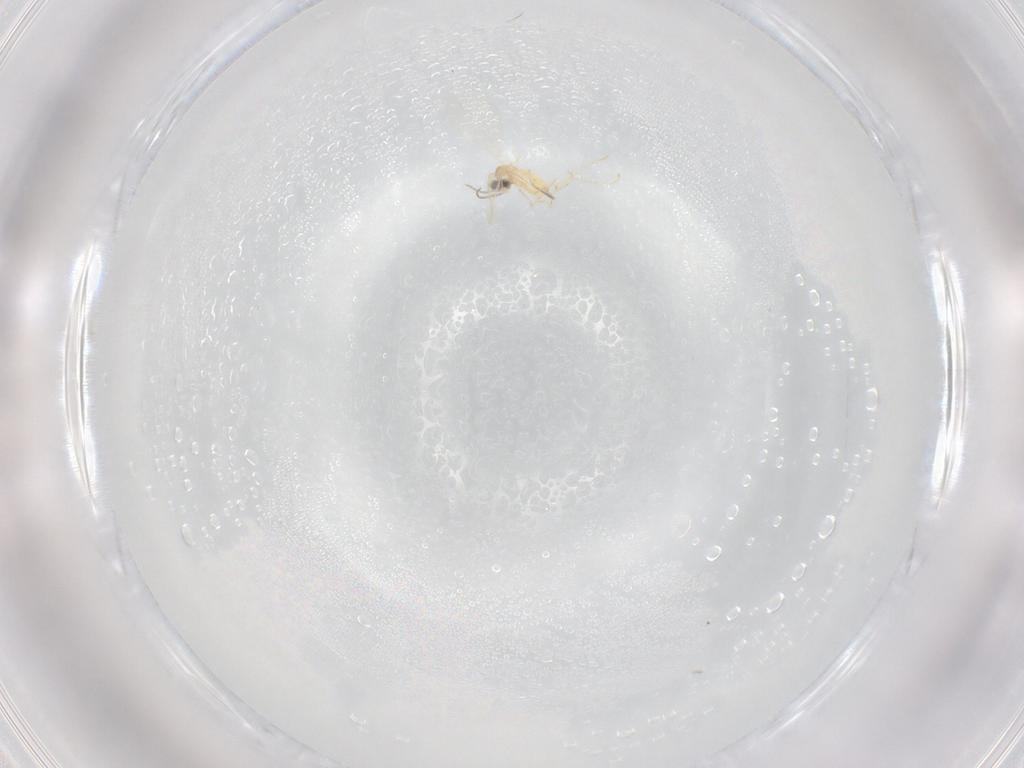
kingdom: Animalia
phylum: Arthropoda
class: Insecta
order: Diptera
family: Cecidomyiidae
